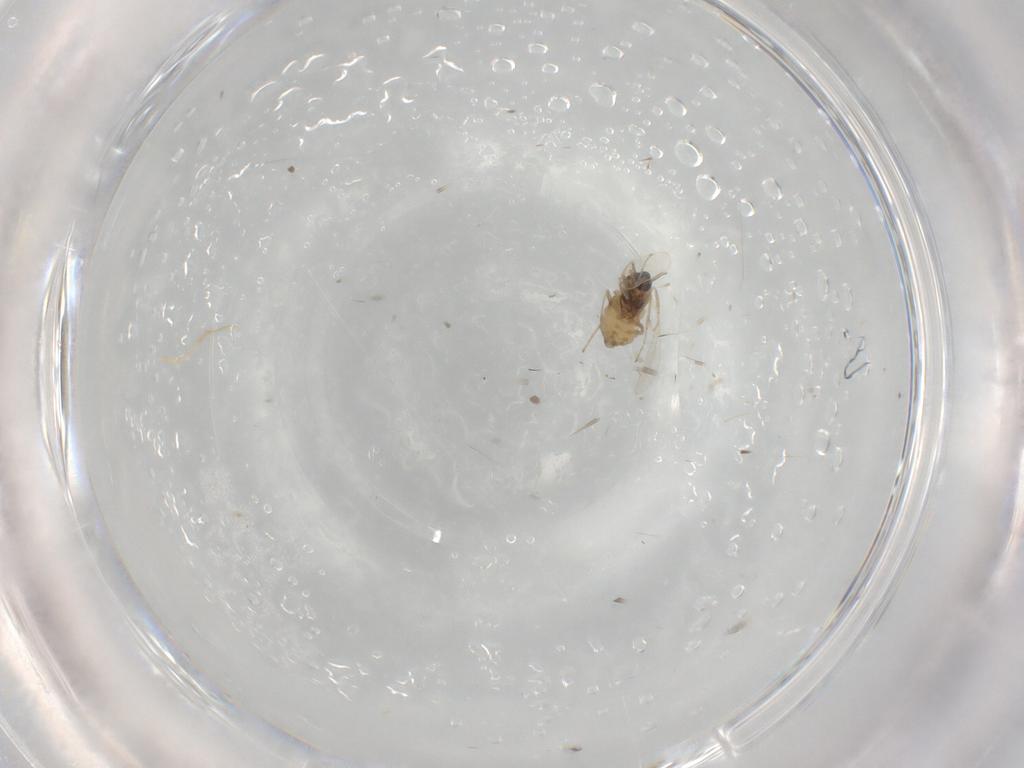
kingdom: Animalia
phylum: Arthropoda
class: Insecta
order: Diptera
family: Cecidomyiidae
